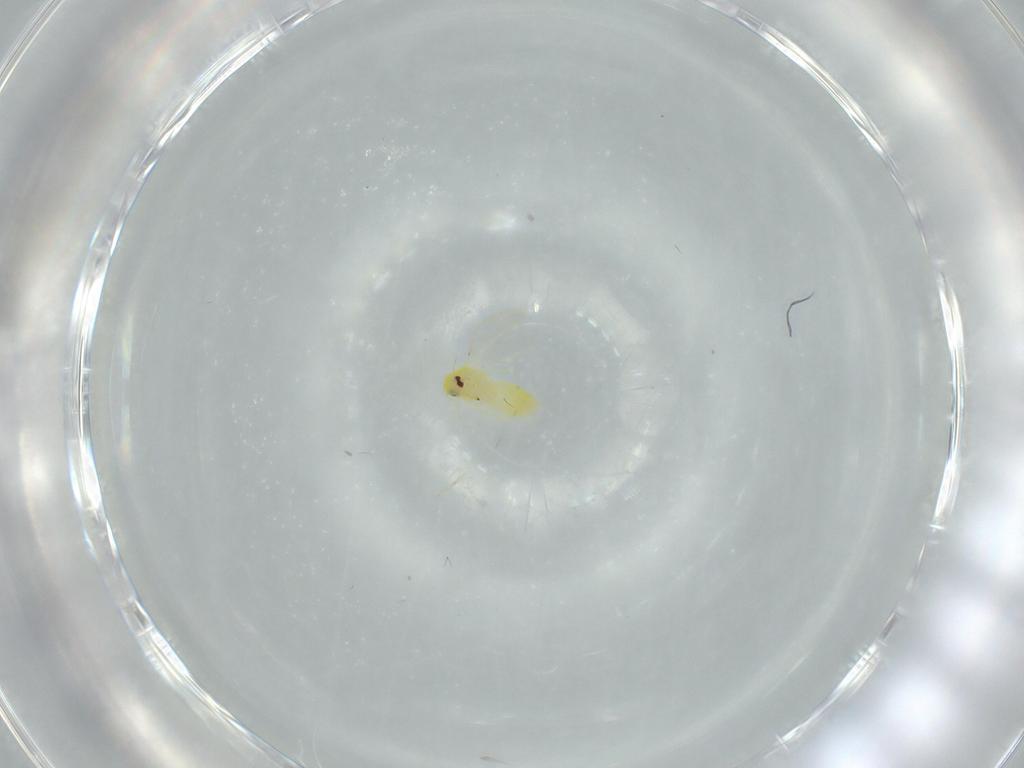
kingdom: Animalia
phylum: Arthropoda
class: Insecta
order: Hemiptera
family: Aleyrodidae
